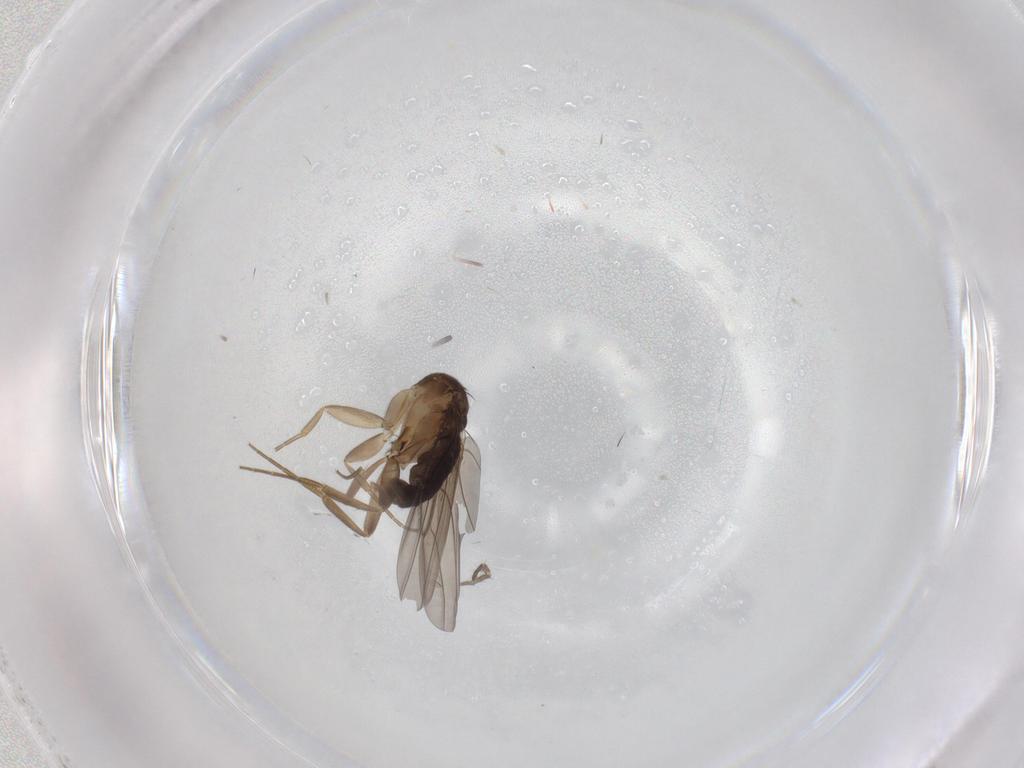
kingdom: Animalia
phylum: Arthropoda
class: Insecta
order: Diptera
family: Phoridae
